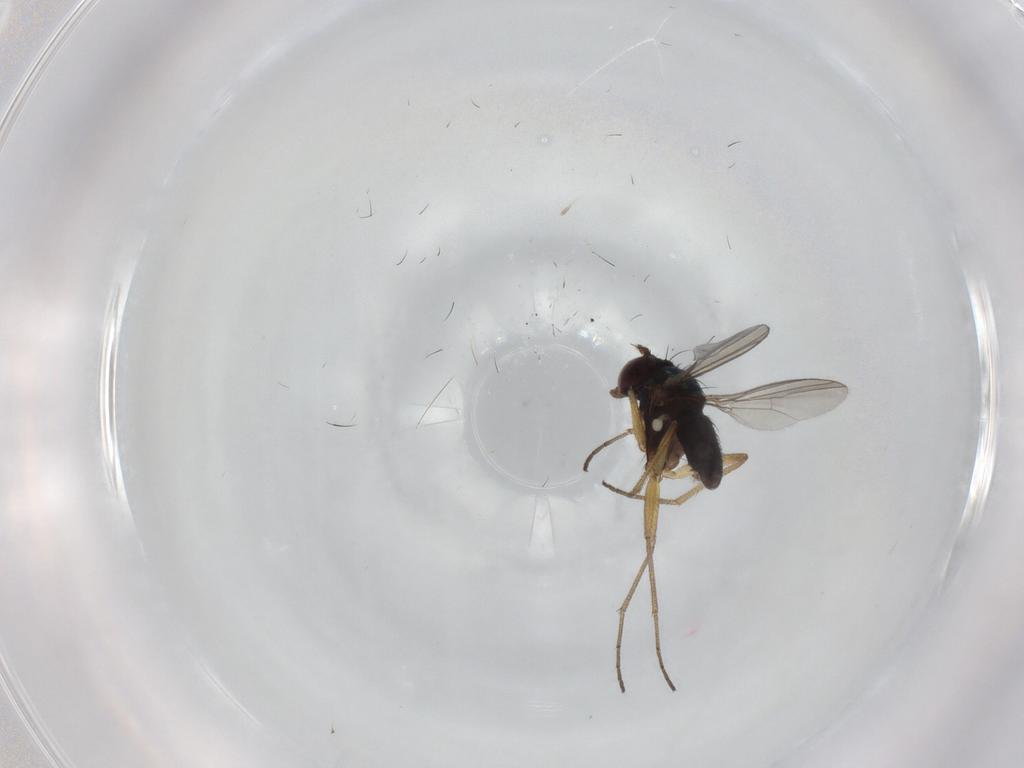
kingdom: Animalia
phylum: Arthropoda
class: Insecta
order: Diptera
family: Dolichopodidae
